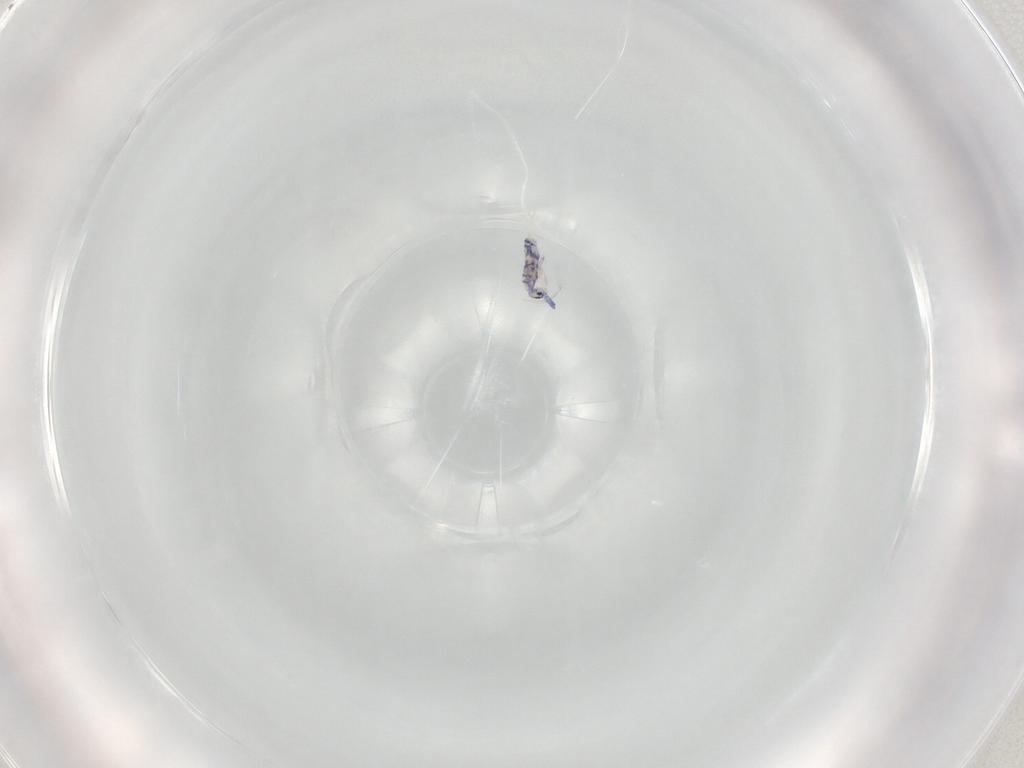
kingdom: Animalia
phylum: Arthropoda
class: Collembola
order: Entomobryomorpha
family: Entomobryidae
